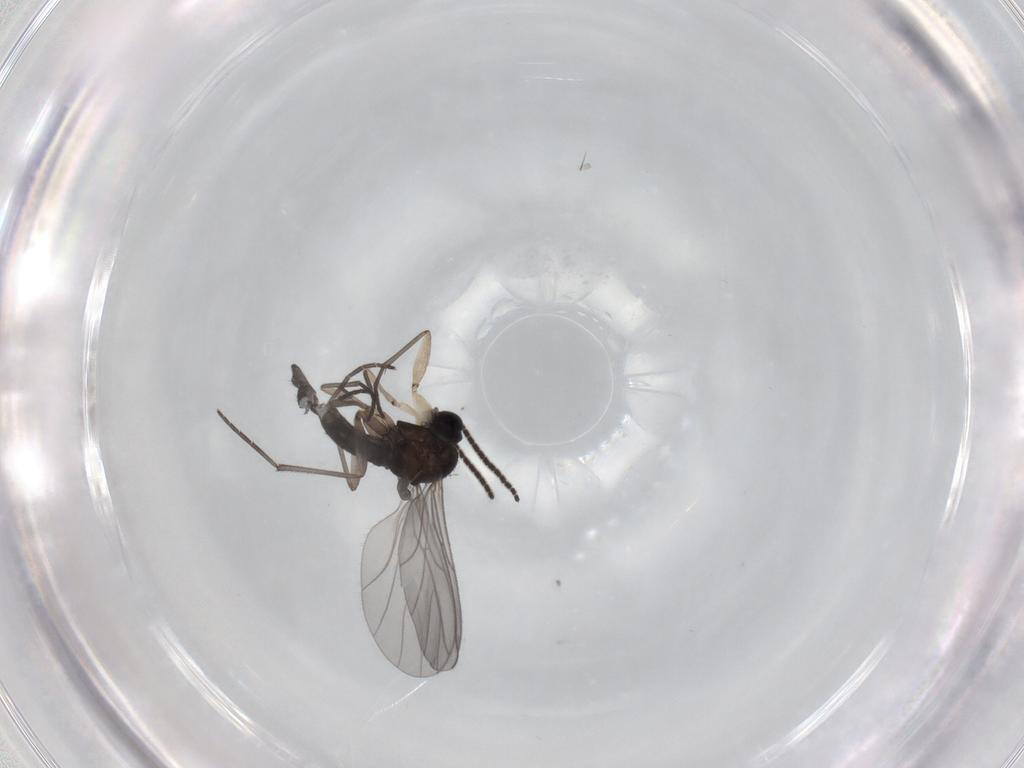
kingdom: Animalia
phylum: Arthropoda
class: Insecta
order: Diptera
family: Sciaridae
